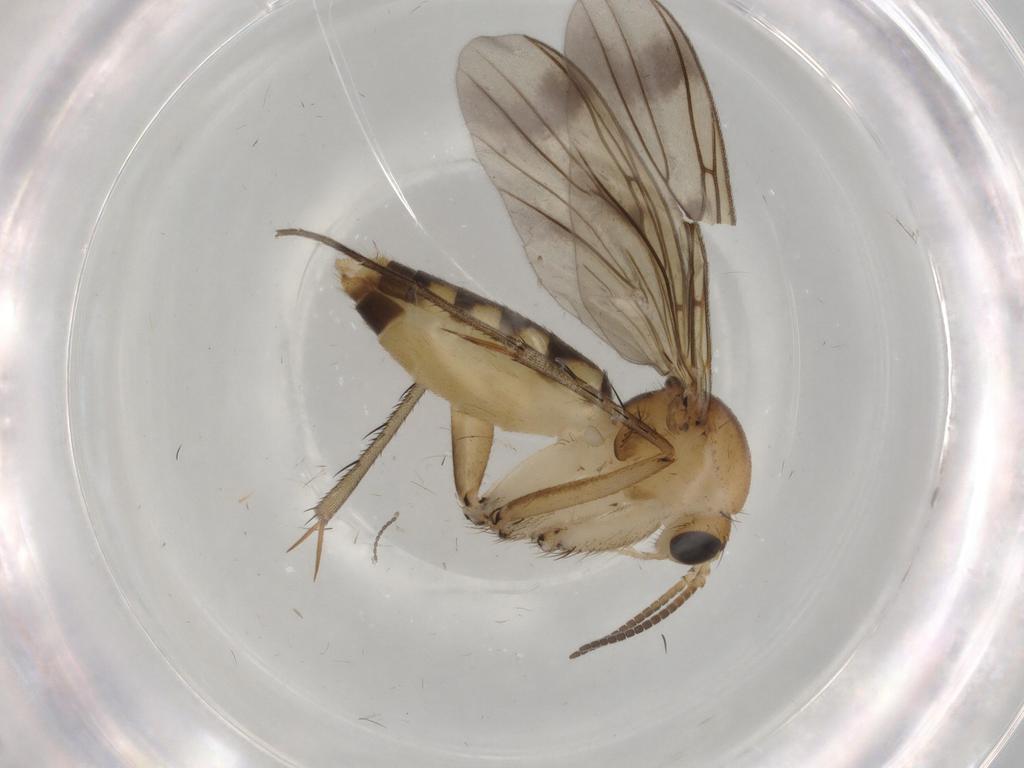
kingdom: Animalia
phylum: Arthropoda
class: Insecta
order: Diptera
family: Mycetophilidae
